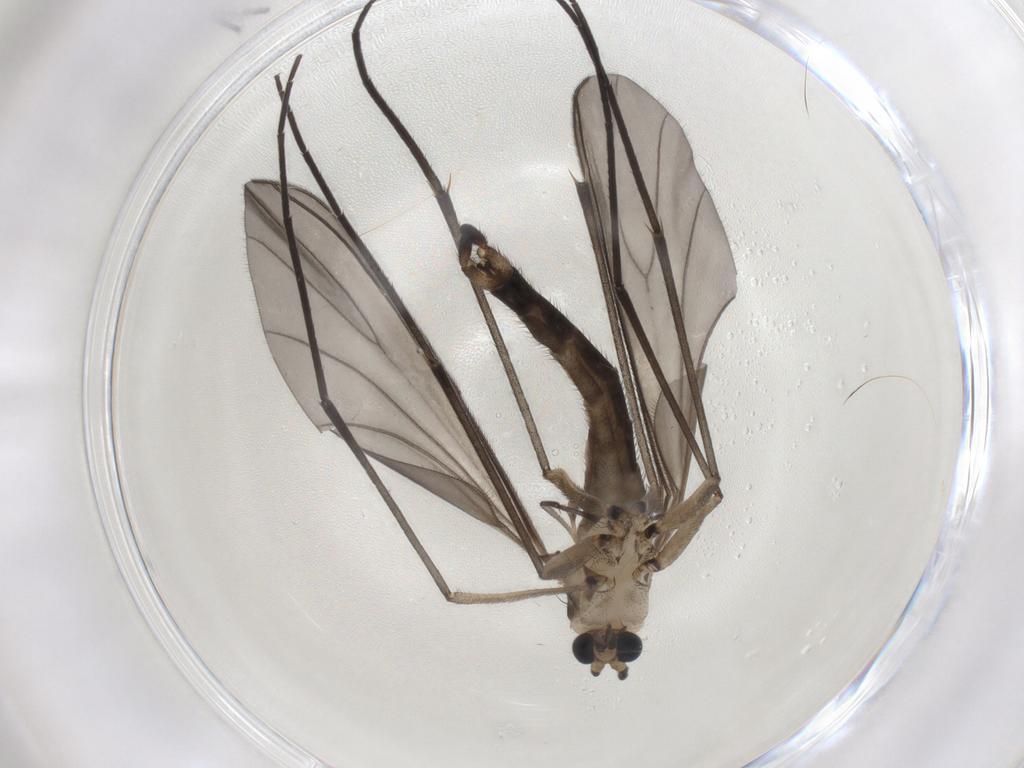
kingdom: Animalia
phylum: Arthropoda
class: Insecta
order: Diptera
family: Sciaridae
